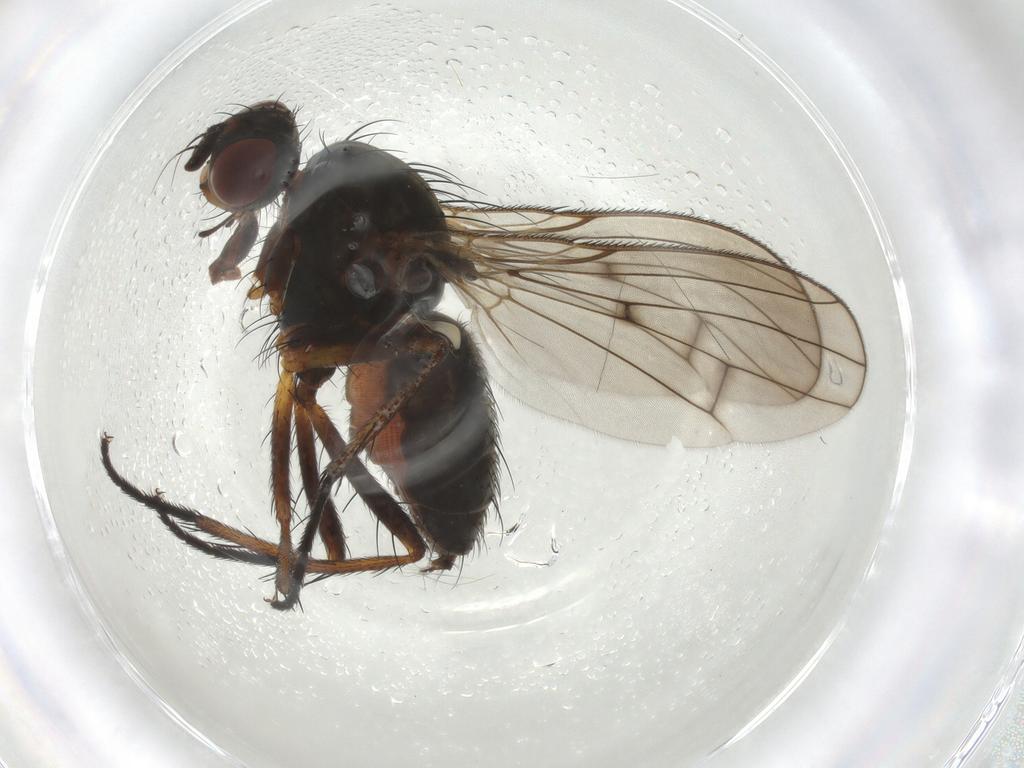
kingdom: Animalia
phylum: Arthropoda
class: Insecta
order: Diptera
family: Anthomyiidae
